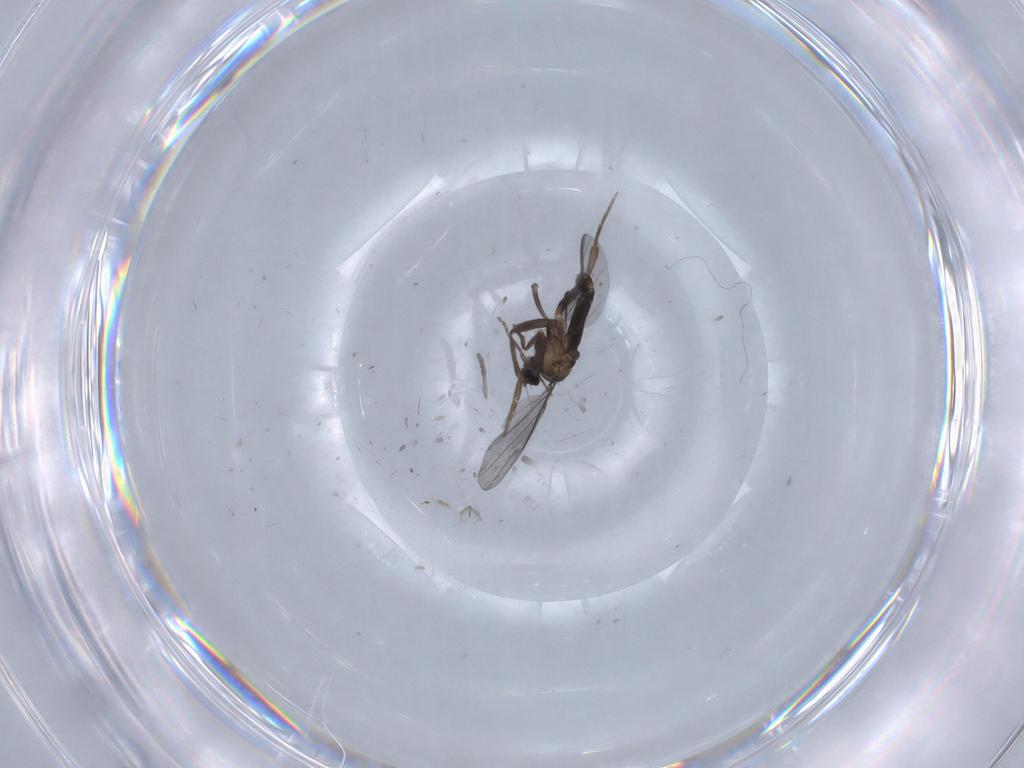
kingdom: Animalia
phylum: Arthropoda
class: Insecta
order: Diptera
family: Phoridae
